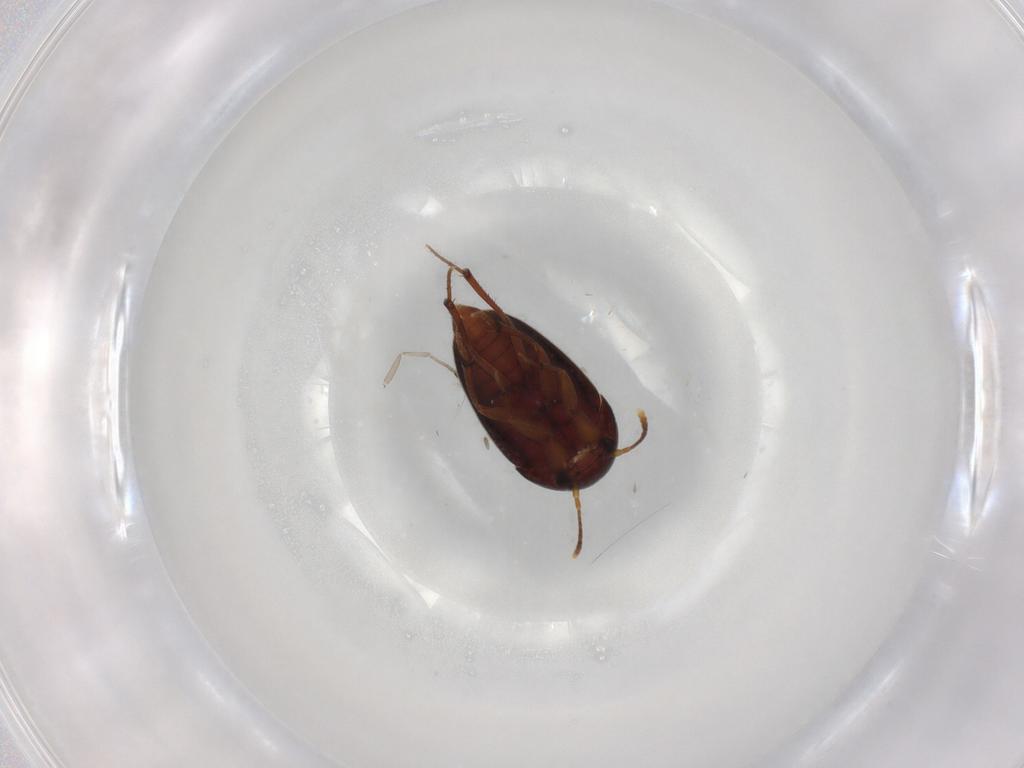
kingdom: Animalia
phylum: Arthropoda
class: Insecta
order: Coleoptera
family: Leiodidae
